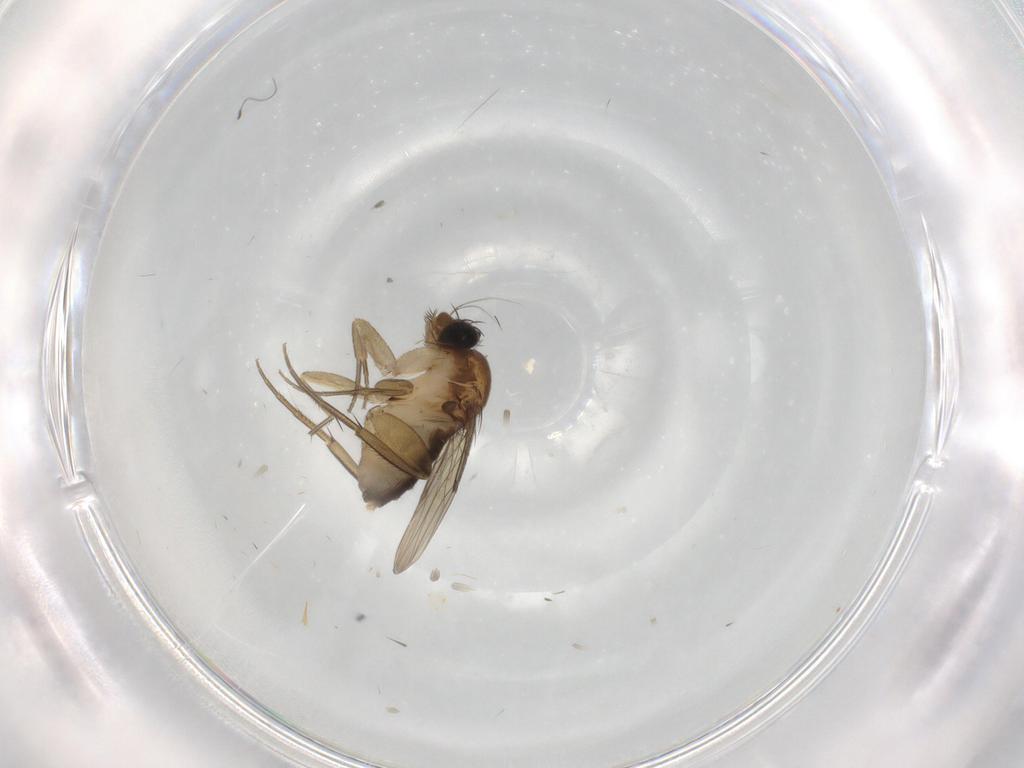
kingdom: Animalia
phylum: Arthropoda
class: Insecta
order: Diptera
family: Phoridae
